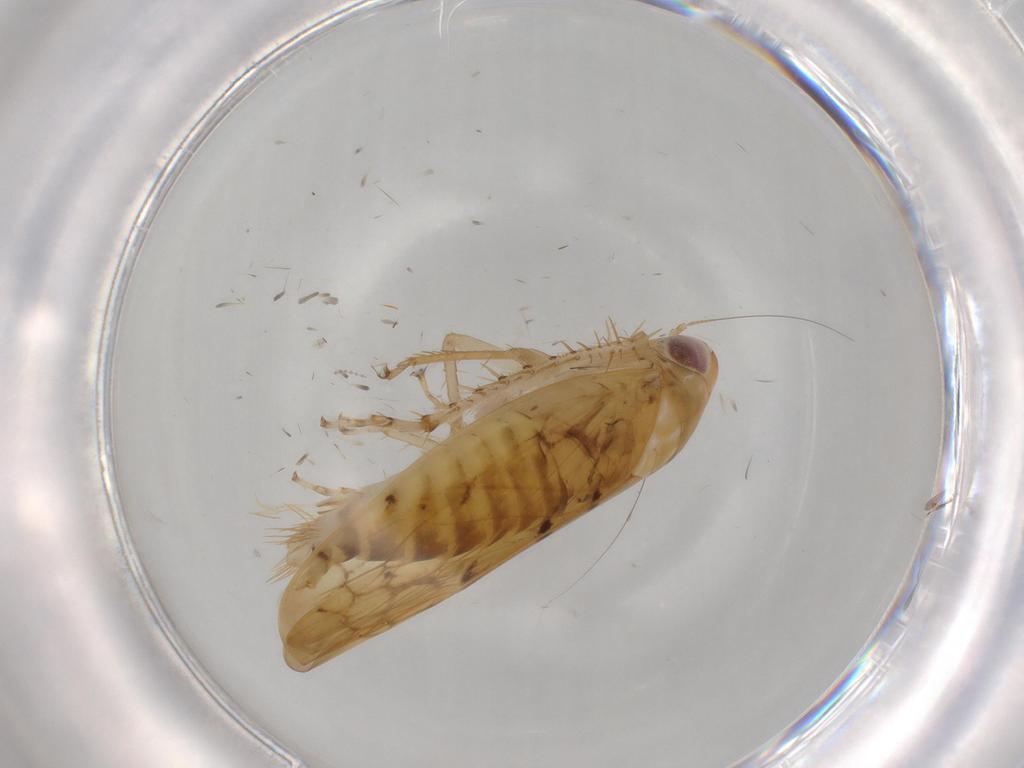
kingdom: Animalia
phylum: Arthropoda
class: Insecta
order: Hemiptera
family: Cicadellidae
